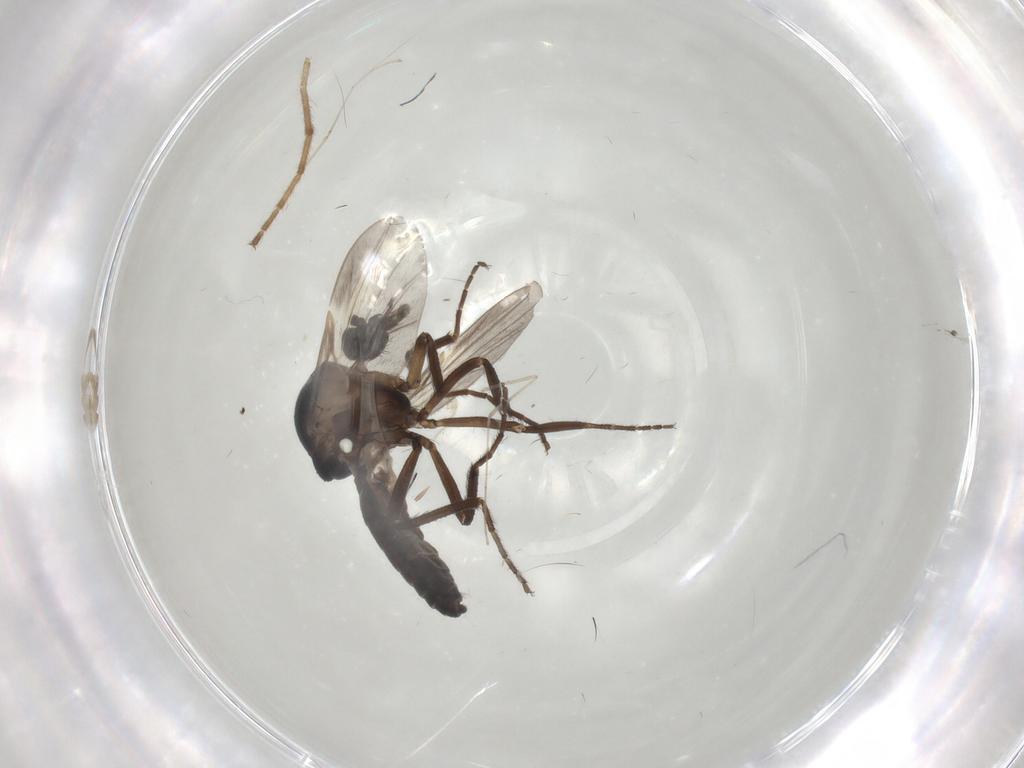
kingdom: Animalia
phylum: Arthropoda
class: Insecta
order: Diptera
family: Ceratopogonidae
